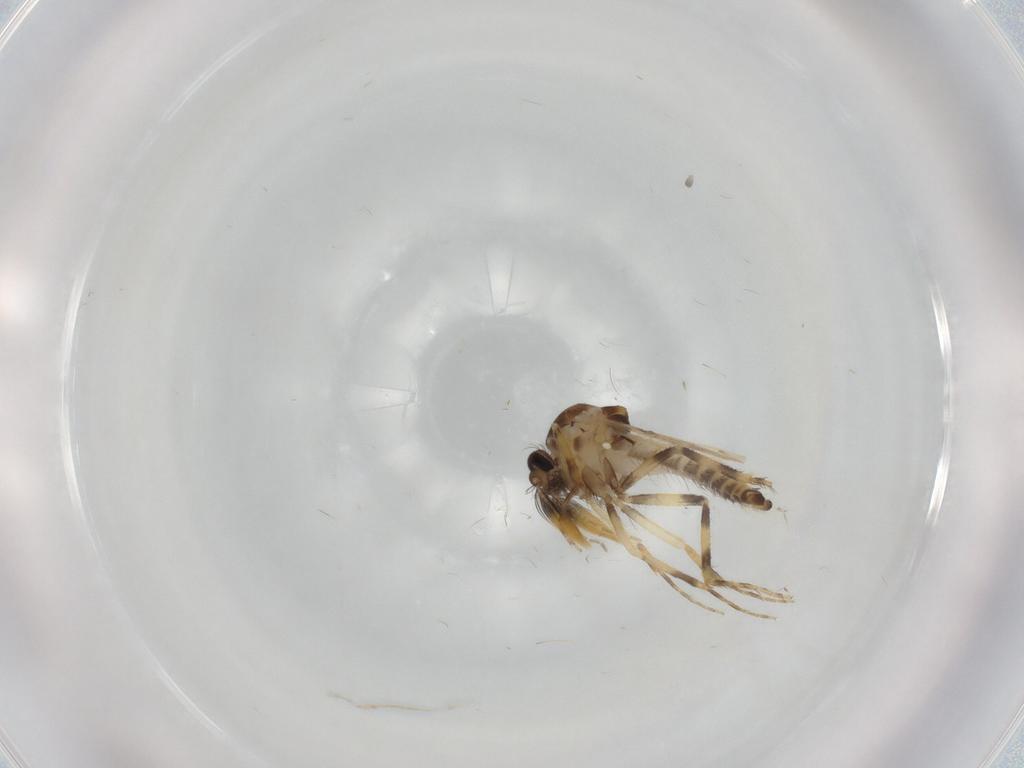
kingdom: Animalia
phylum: Arthropoda
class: Insecta
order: Diptera
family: Ceratopogonidae
